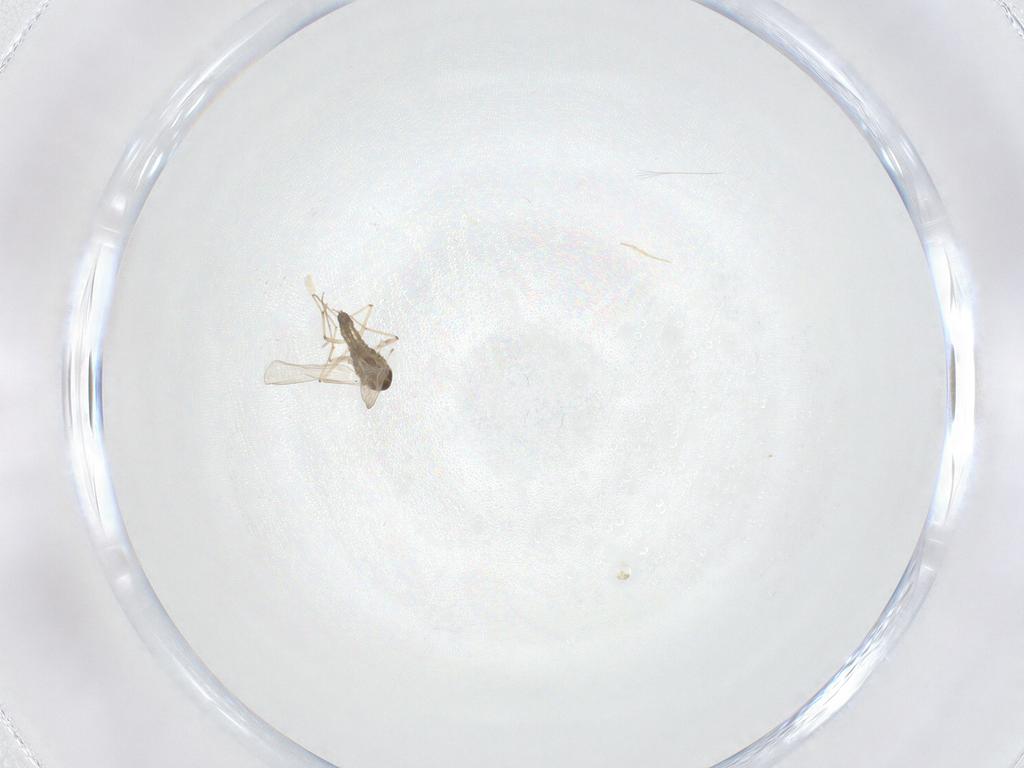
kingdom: Animalia
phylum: Arthropoda
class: Insecta
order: Diptera
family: Chironomidae
